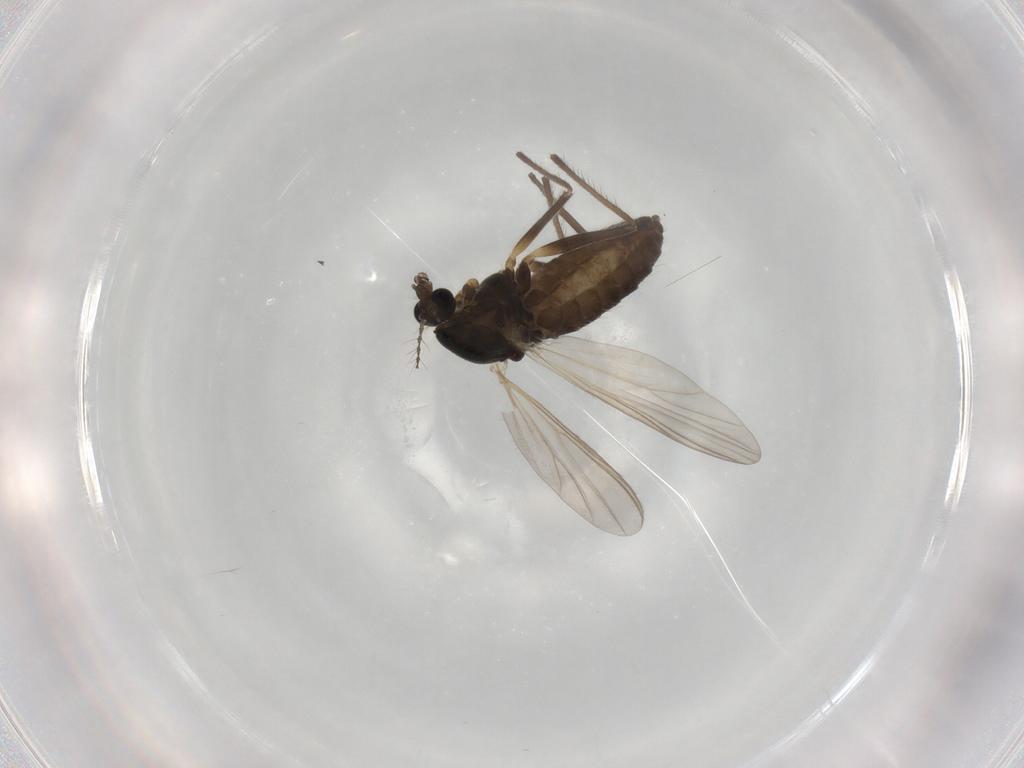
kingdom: Animalia
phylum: Arthropoda
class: Insecta
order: Diptera
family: Chironomidae
